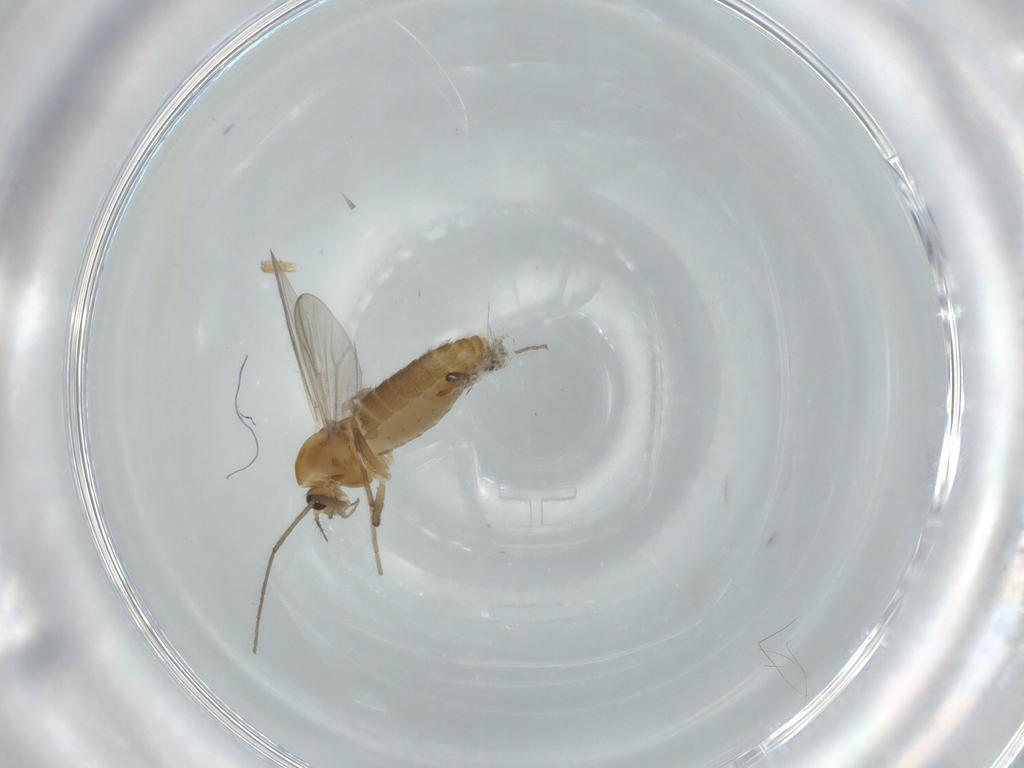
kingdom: Animalia
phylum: Arthropoda
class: Insecta
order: Diptera
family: Chironomidae
